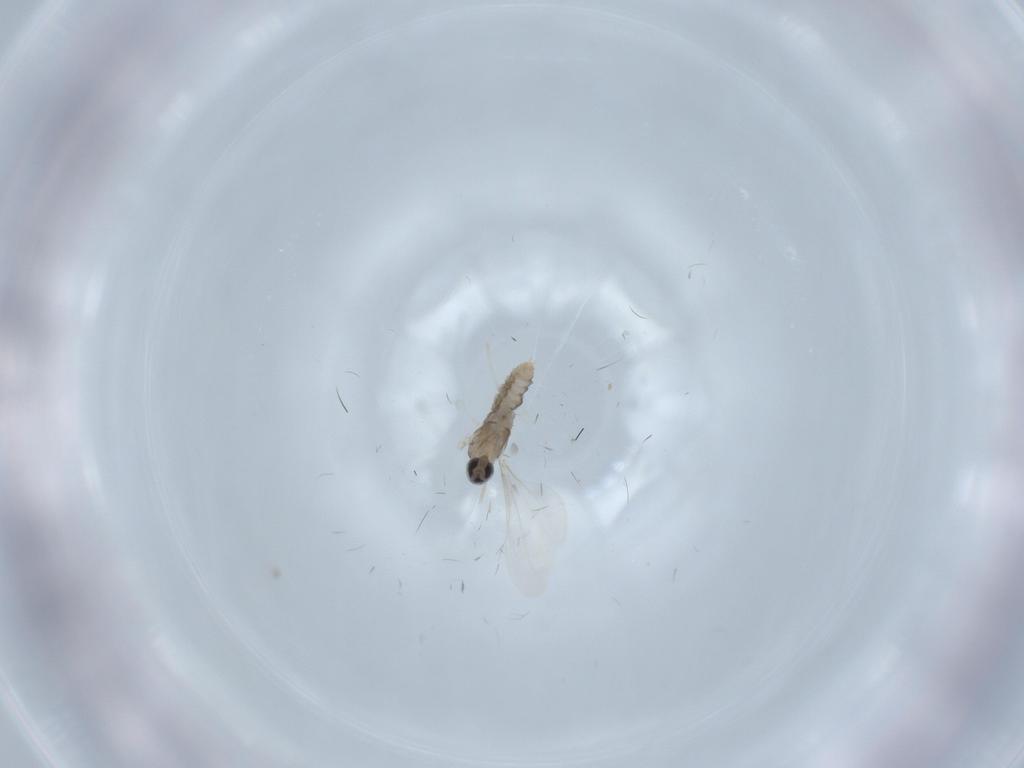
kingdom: Animalia
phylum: Arthropoda
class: Insecta
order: Diptera
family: Cecidomyiidae
